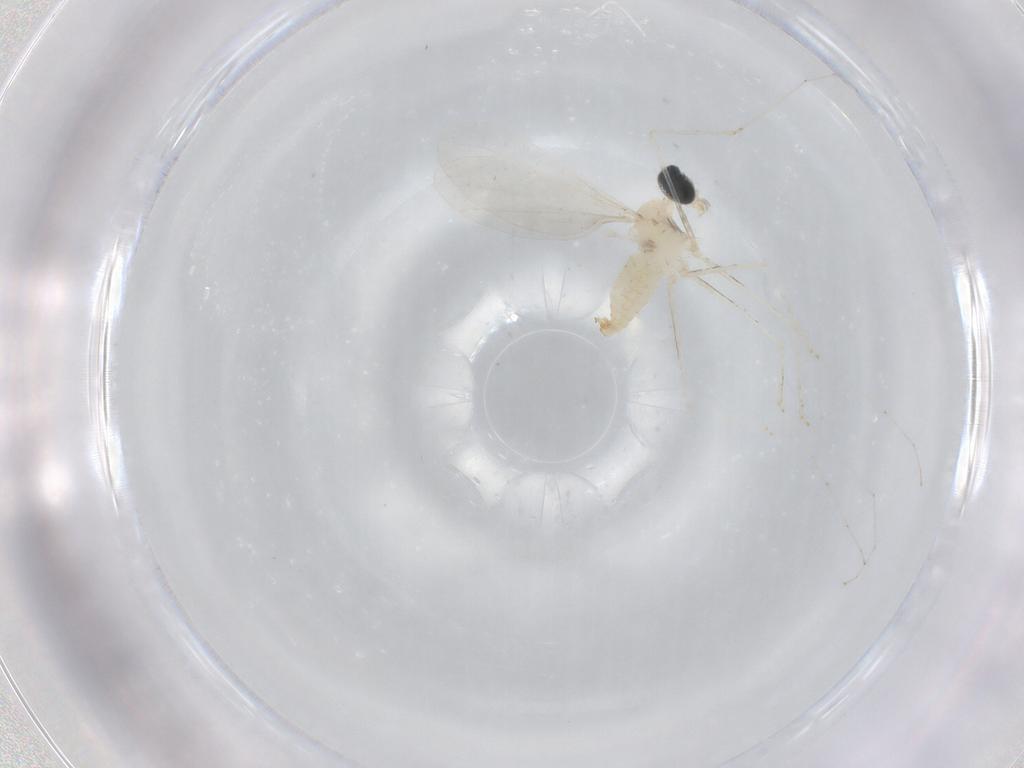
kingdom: Animalia
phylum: Arthropoda
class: Insecta
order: Diptera
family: Cecidomyiidae
